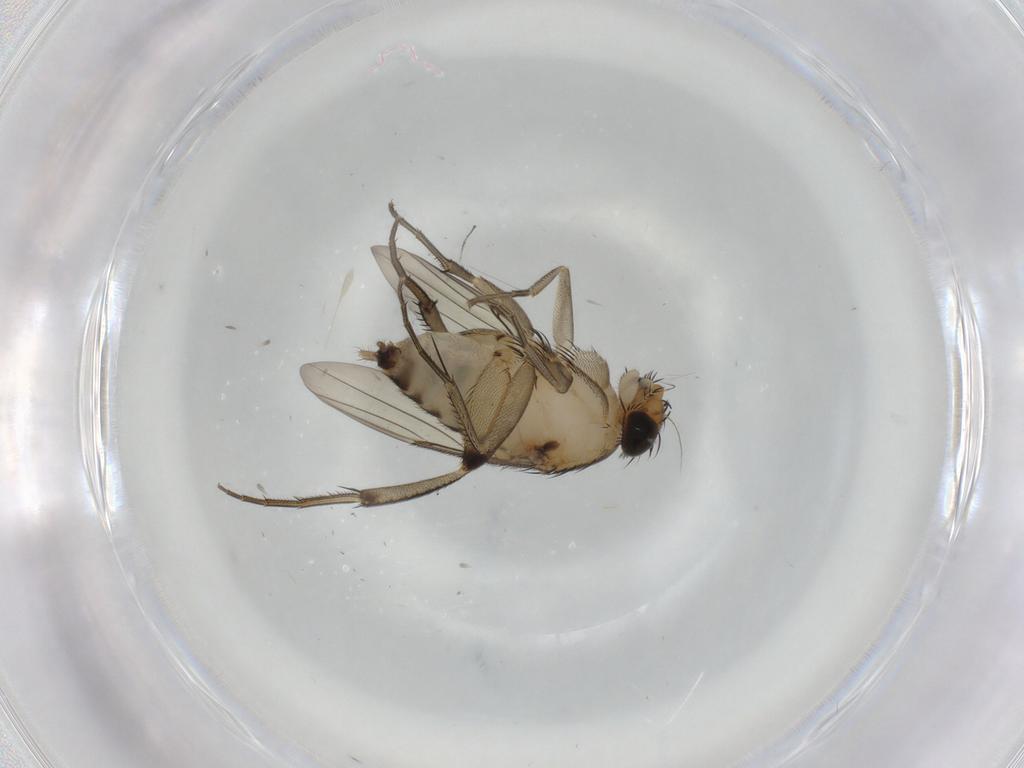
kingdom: Animalia
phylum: Arthropoda
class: Insecta
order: Diptera
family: Phoridae
